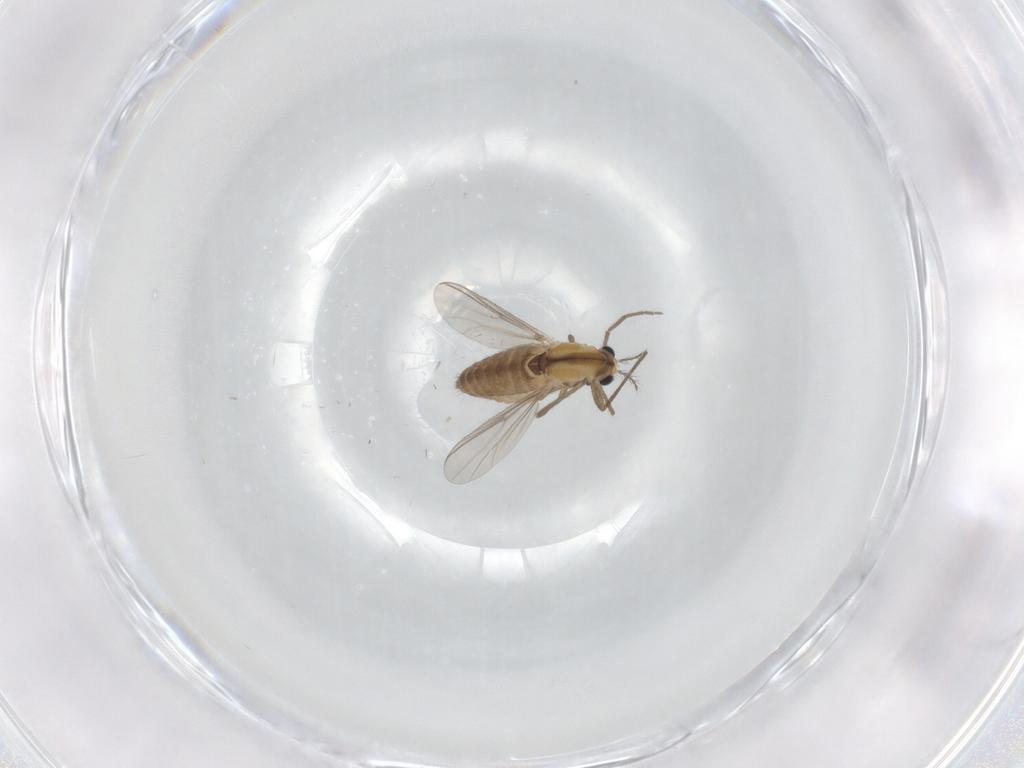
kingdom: Animalia
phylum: Arthropoda
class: Insecta
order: Diptera
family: Chironomidae
